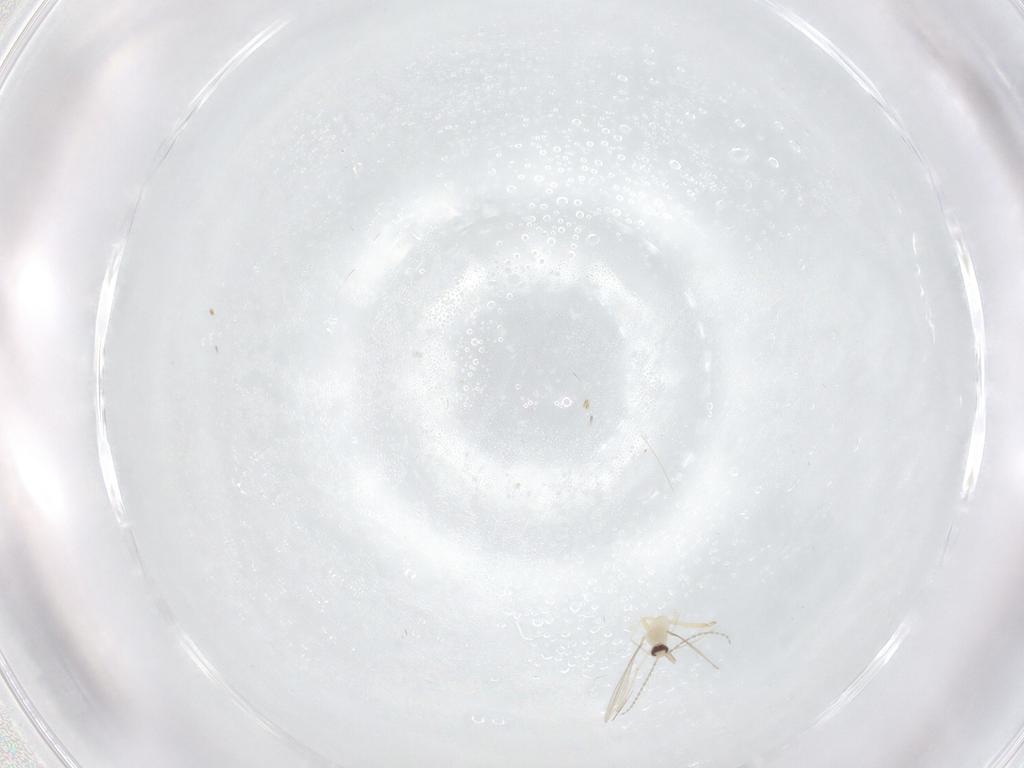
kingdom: Animalia
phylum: Arthropoda
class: Insecta
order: Diptera
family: Cecidomyiidae
